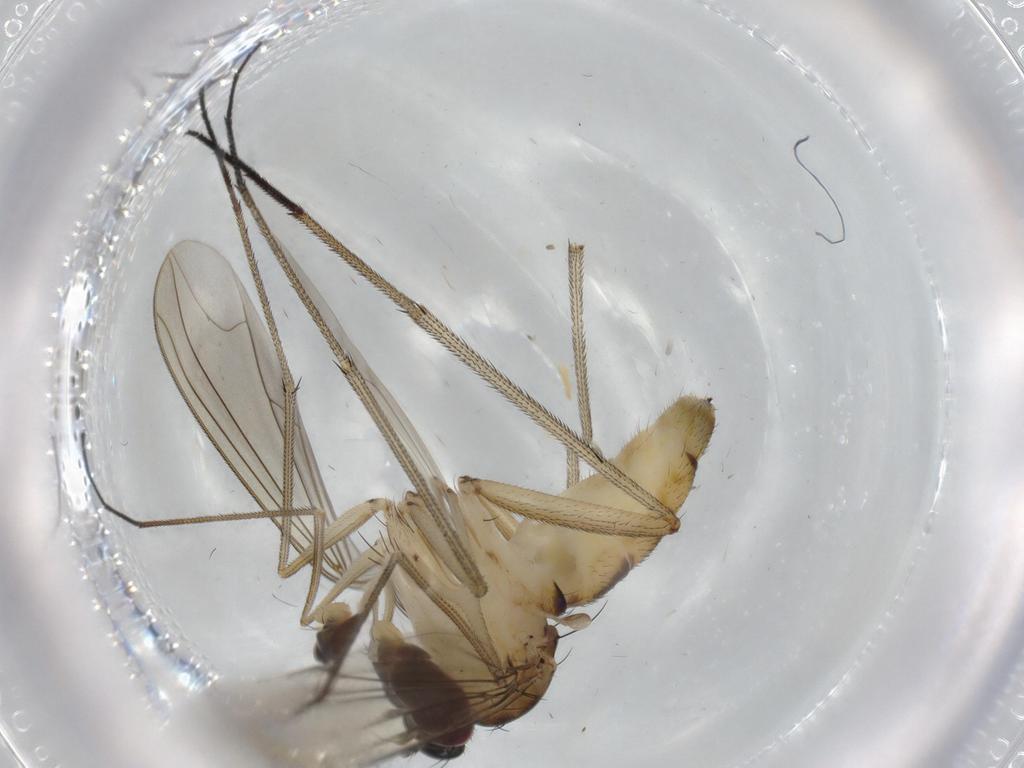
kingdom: Animalia
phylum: Arthropoda
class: Insecta
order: Diptera
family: Dolichopodidae
